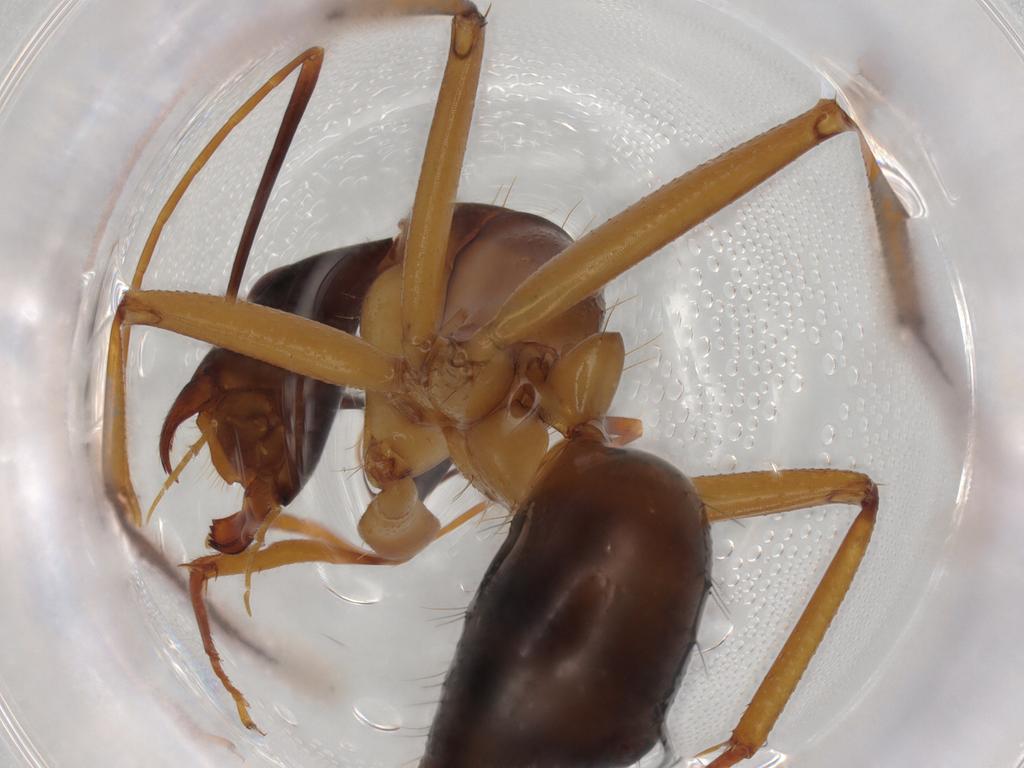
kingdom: Animalia
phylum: Arthropoda
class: Insecta
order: Hymenoptera
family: Formicidae
